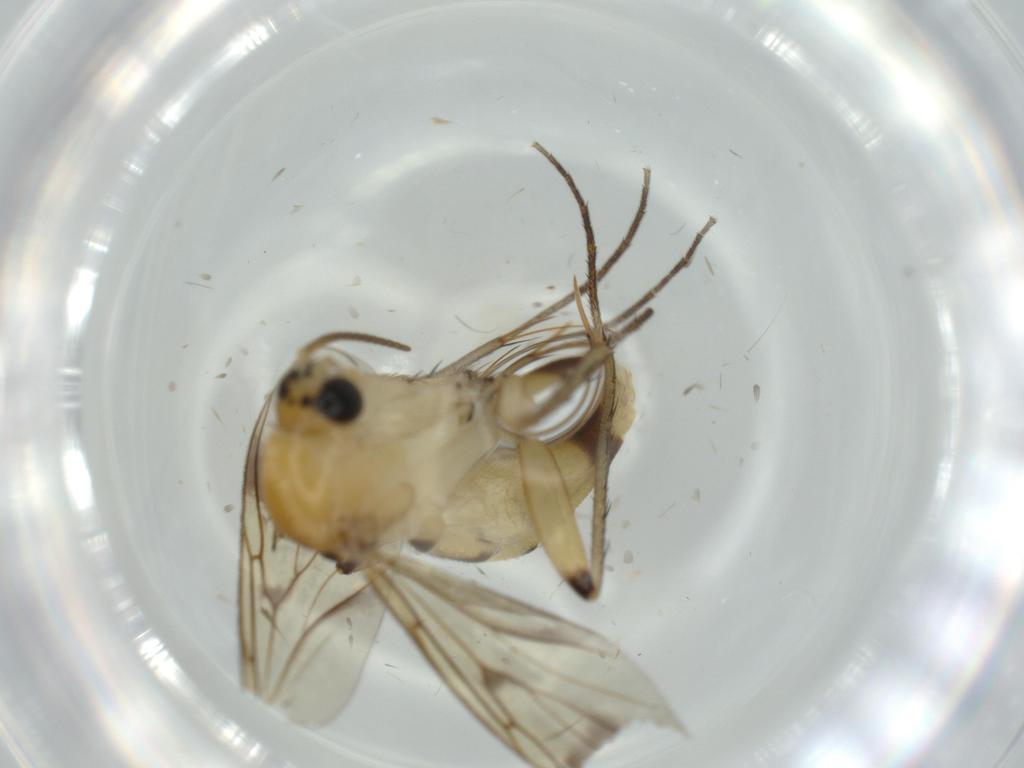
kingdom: Animalia
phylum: Arthropoda
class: Insecta
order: Diptera
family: Cecidomyiidae
